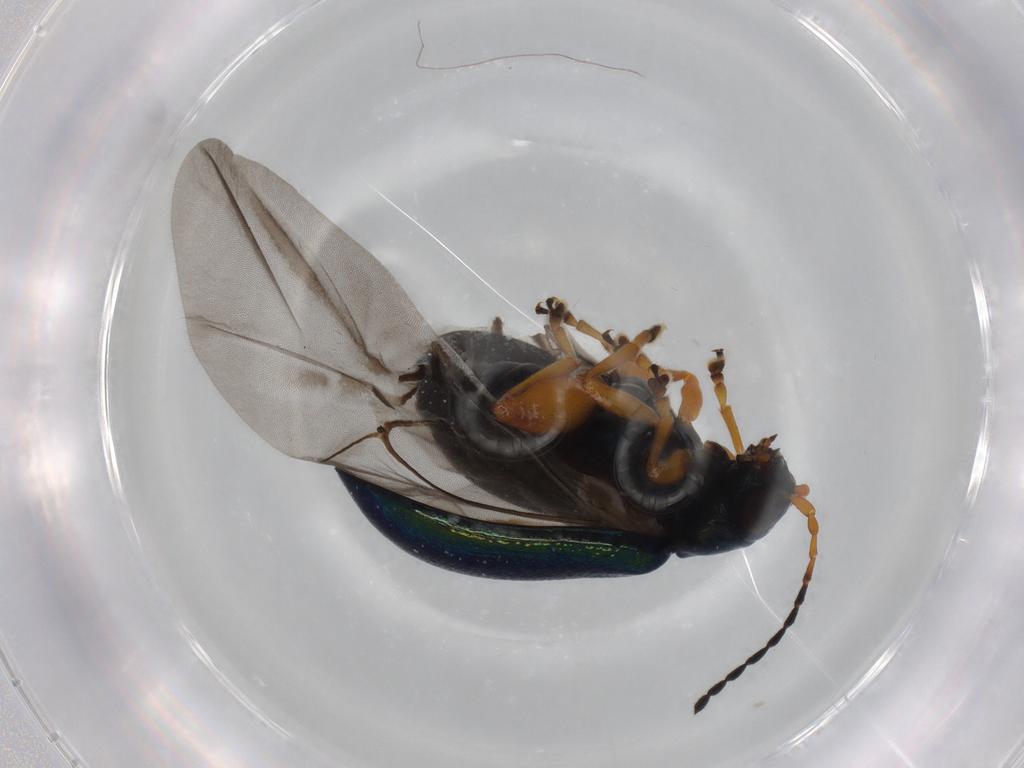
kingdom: Animalia
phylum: Arthropoda
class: Insecta
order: Coleoptera
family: Chrysomelidae
